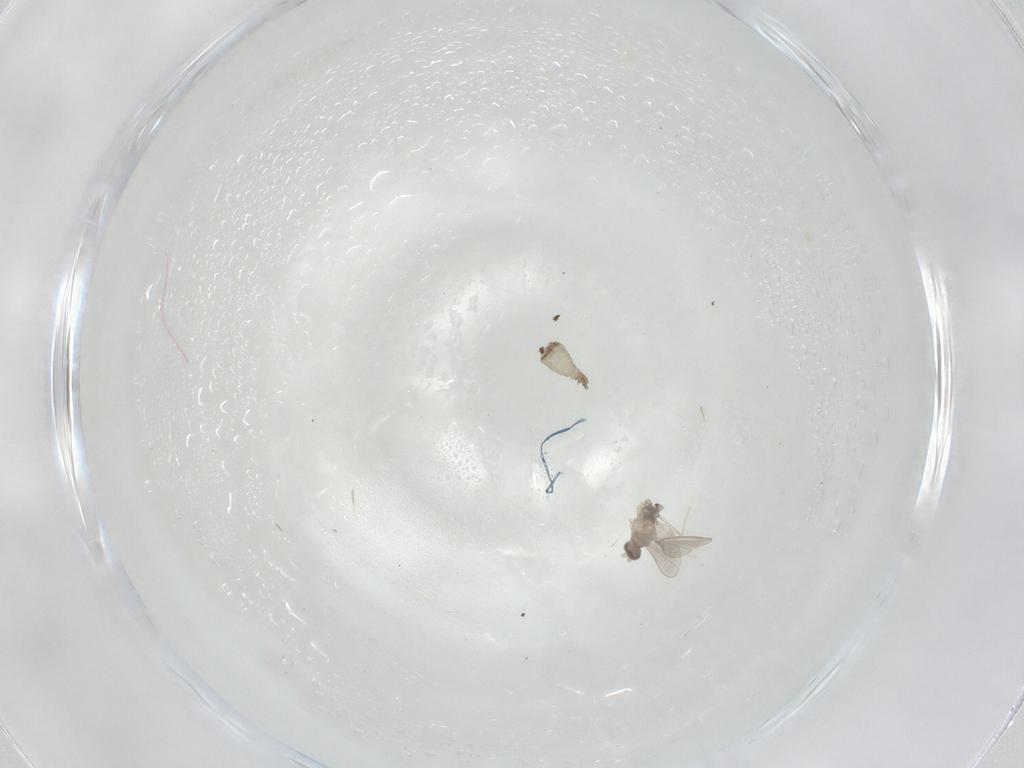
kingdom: Animalia
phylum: Arthropoda
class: Insecta
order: Diptera
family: Cecidomyiidae
